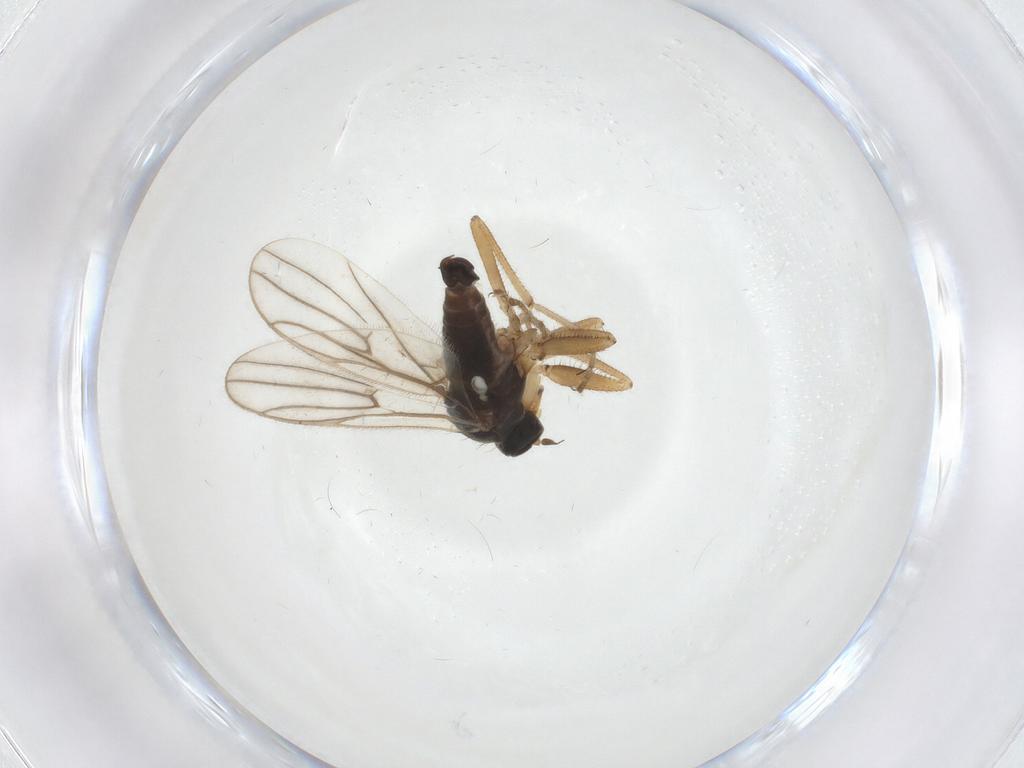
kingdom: Animalia
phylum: Arthropoda
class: Insecta
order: Diptera
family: Hybotidae
